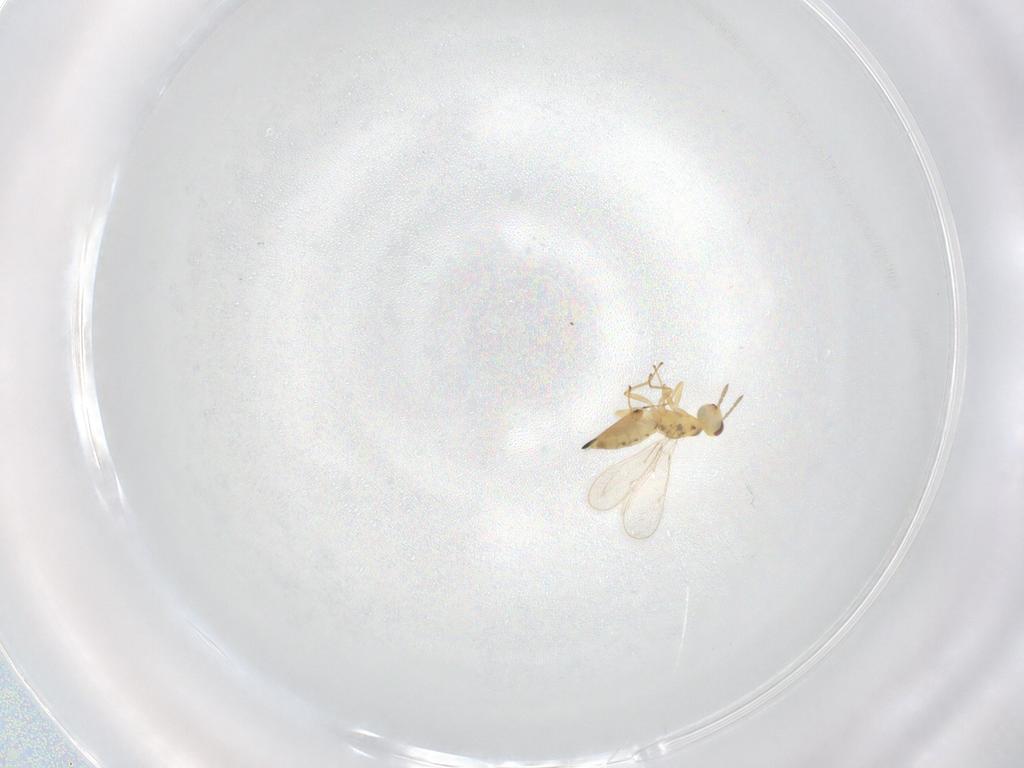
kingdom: Animalia
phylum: Arthropoda
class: Insecta
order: Hymenoptera
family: Eulophidae
